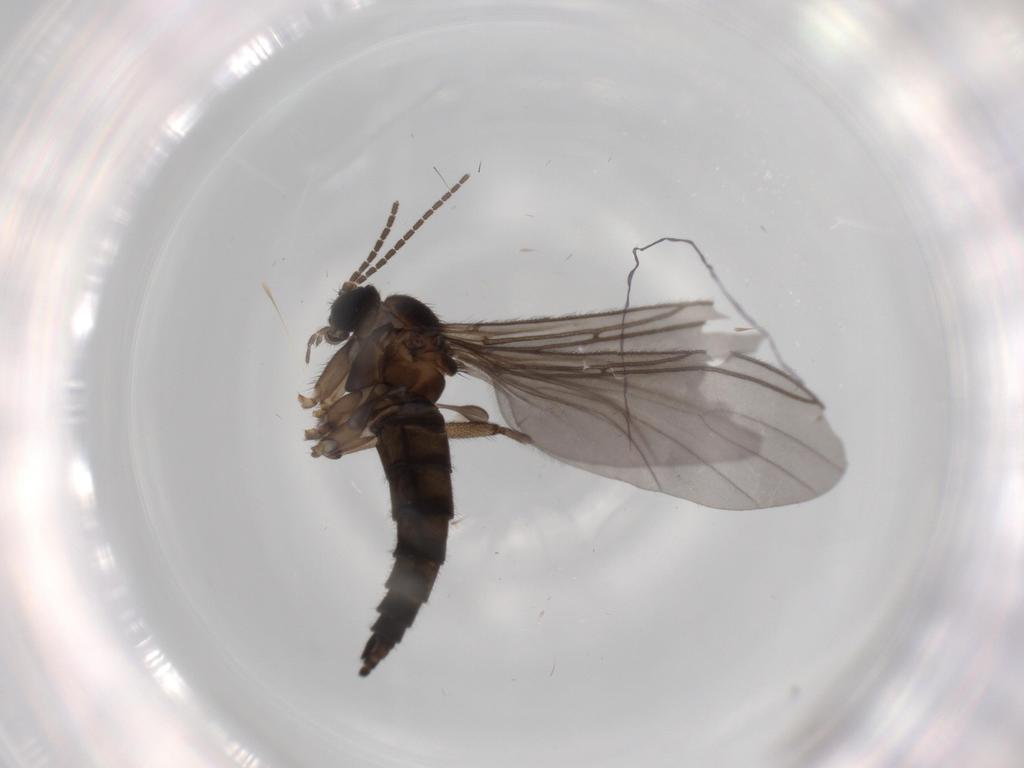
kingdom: Animalia
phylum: Arthropoda
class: Insecta
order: Diptera
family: Sciaridae
